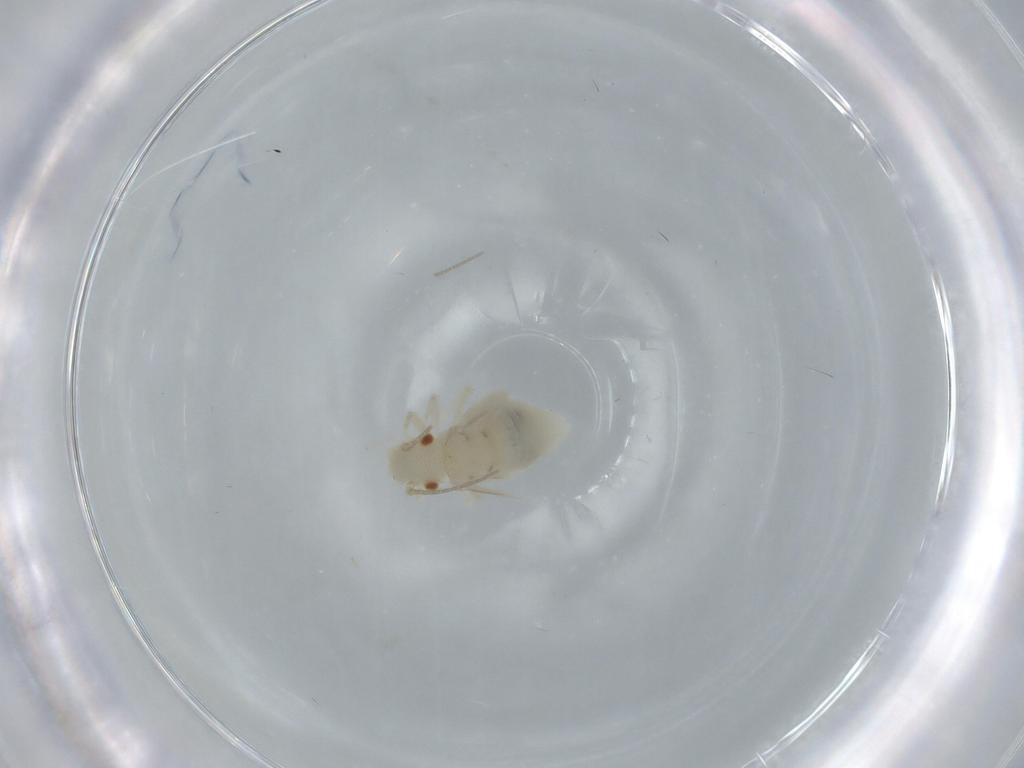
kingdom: Animalia
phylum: Arthropoda
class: Insecta
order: Psocodea
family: Caeciliusidae
